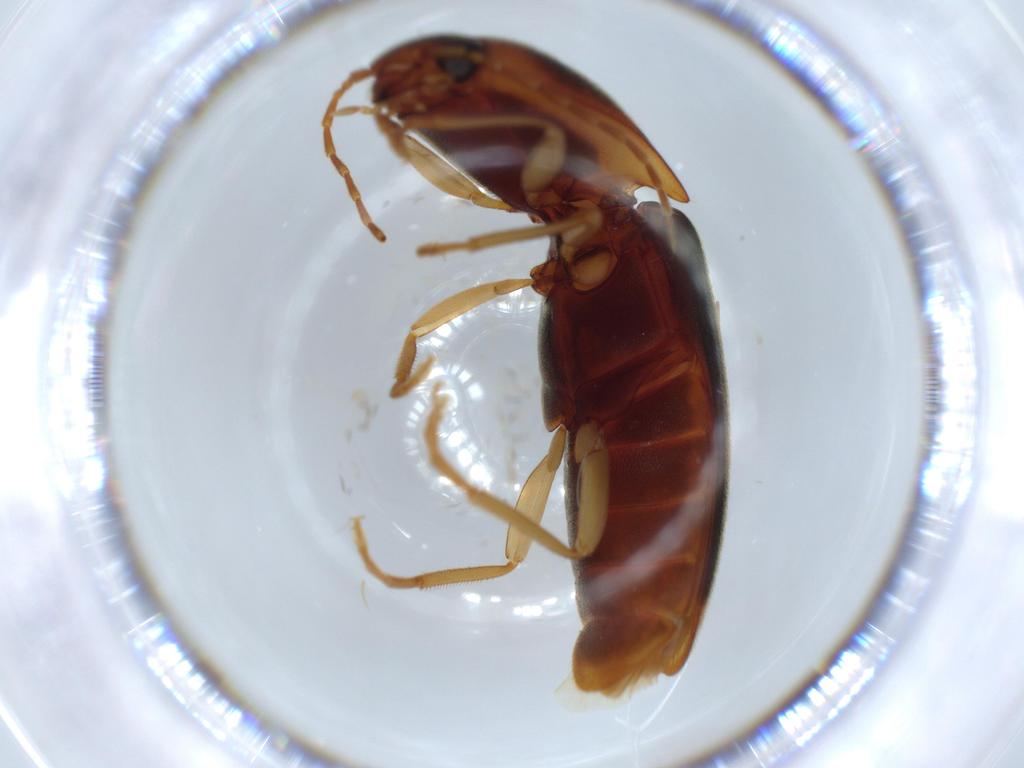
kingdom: Animalia
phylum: Arthropoda
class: Insecta
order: Coleoptera
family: Elateridae
